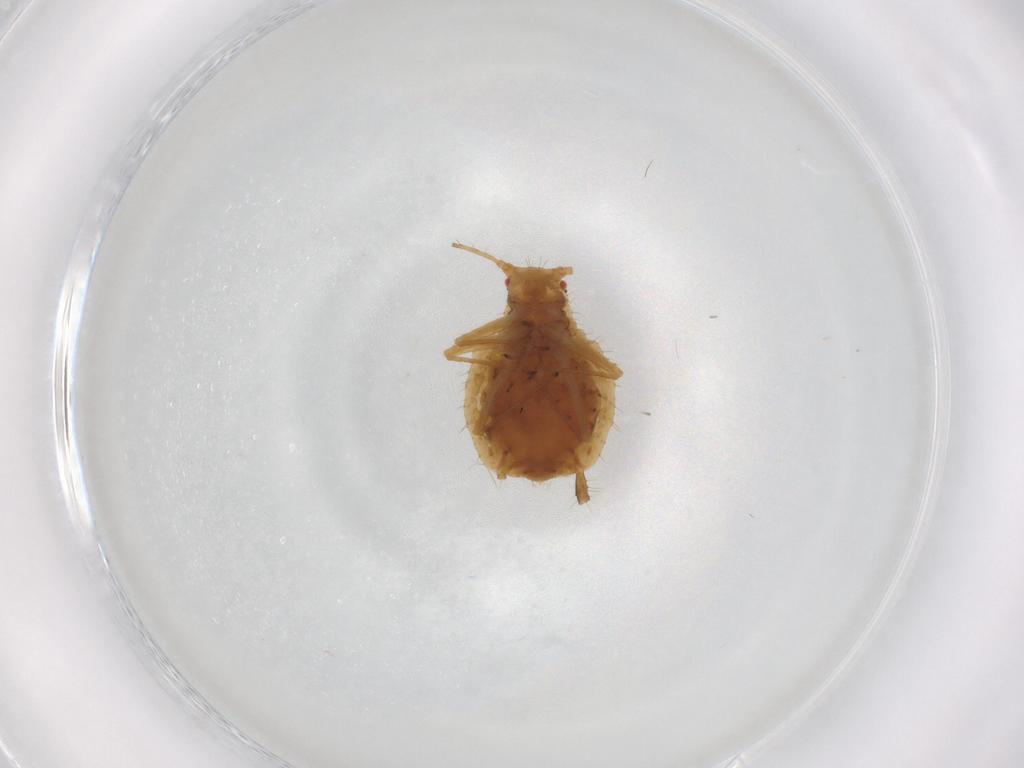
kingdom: Animalia
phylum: Arthropoda
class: Insecta
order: Hemiptera
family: Aphididae
